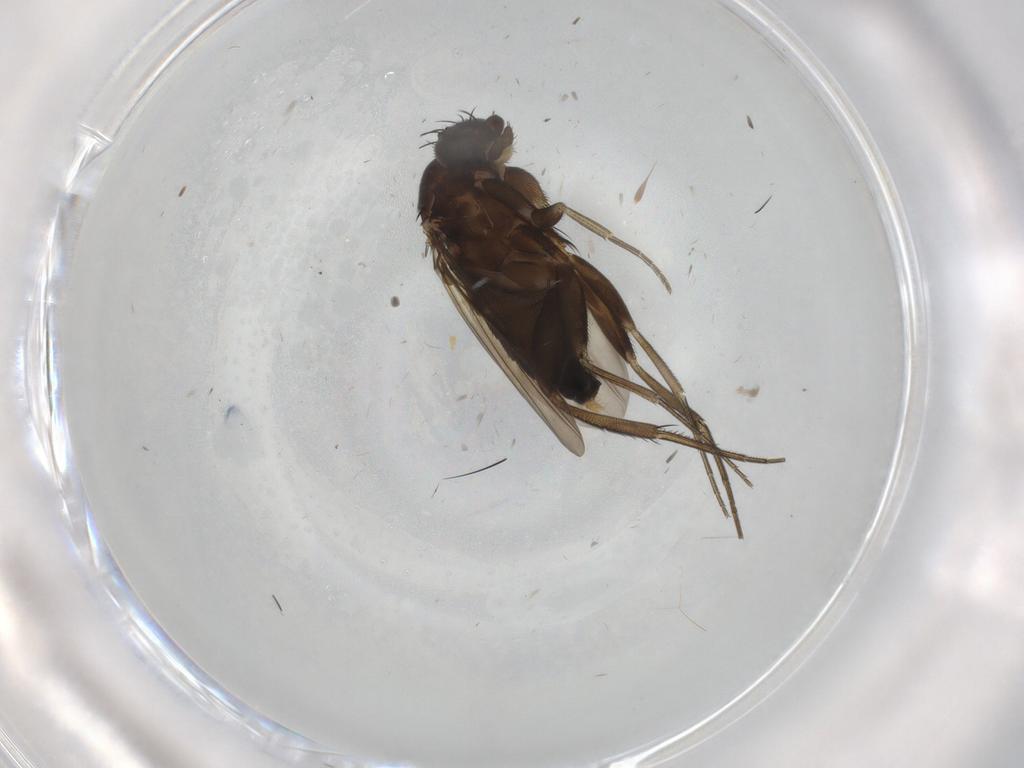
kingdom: Animalia
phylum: Arthropoda
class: Insecta
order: Diptera
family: Phoridae
